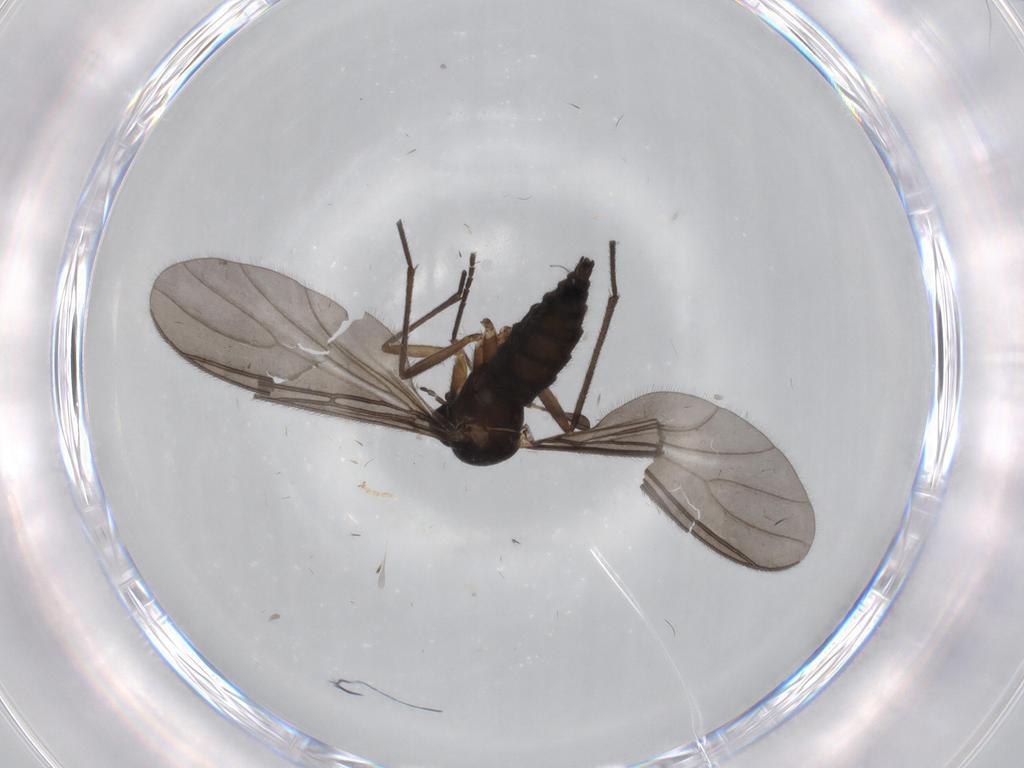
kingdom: Animalia
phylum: Arthropoda
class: Insecta
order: Diptera
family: Sciaridae
